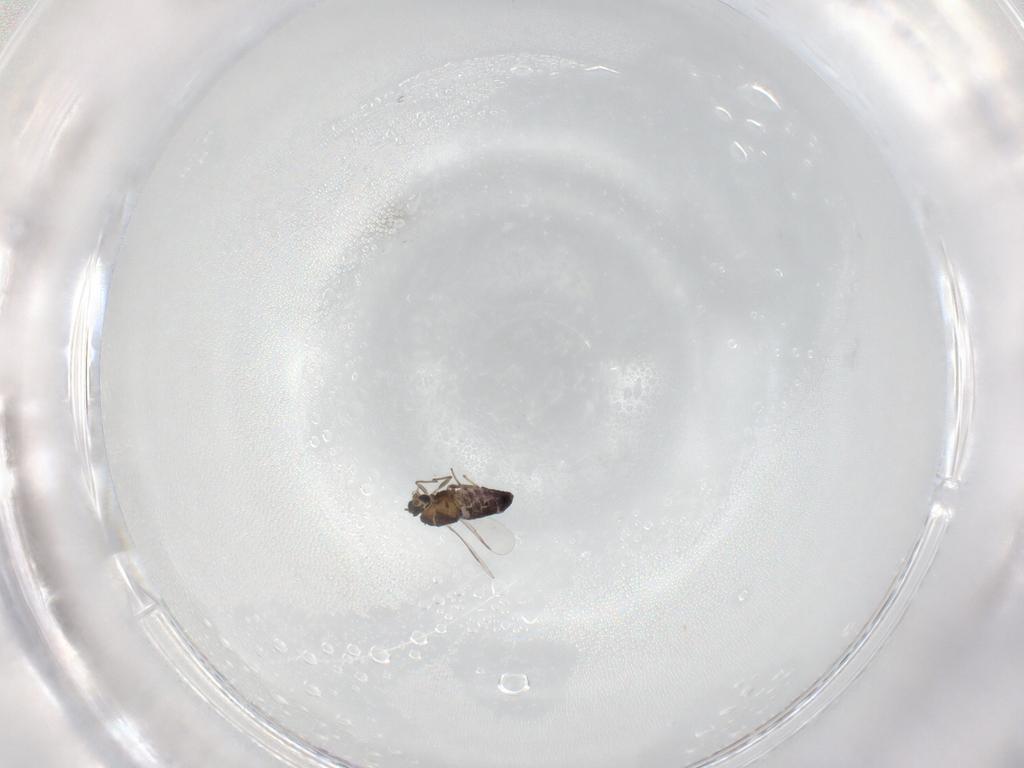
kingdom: Animalia
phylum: Arthropoda
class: Insecta
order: Diptera
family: Chironomidae
